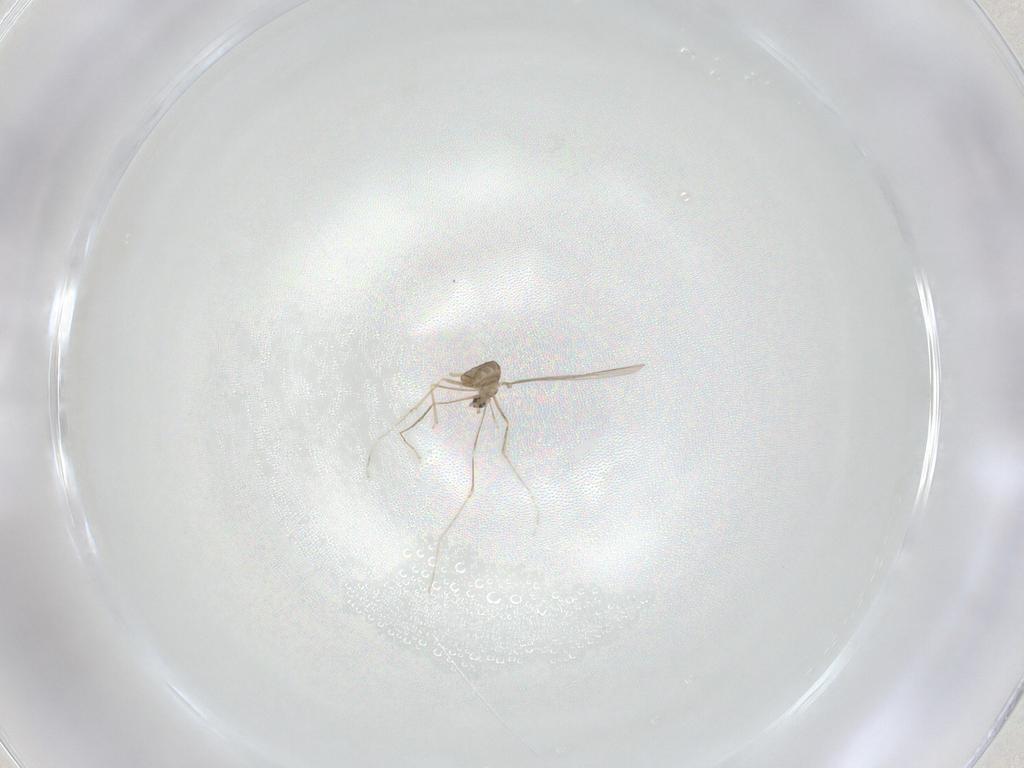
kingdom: Animalia
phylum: Arthropoda
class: Insecta
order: Diptera
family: Cecidomyiidae
